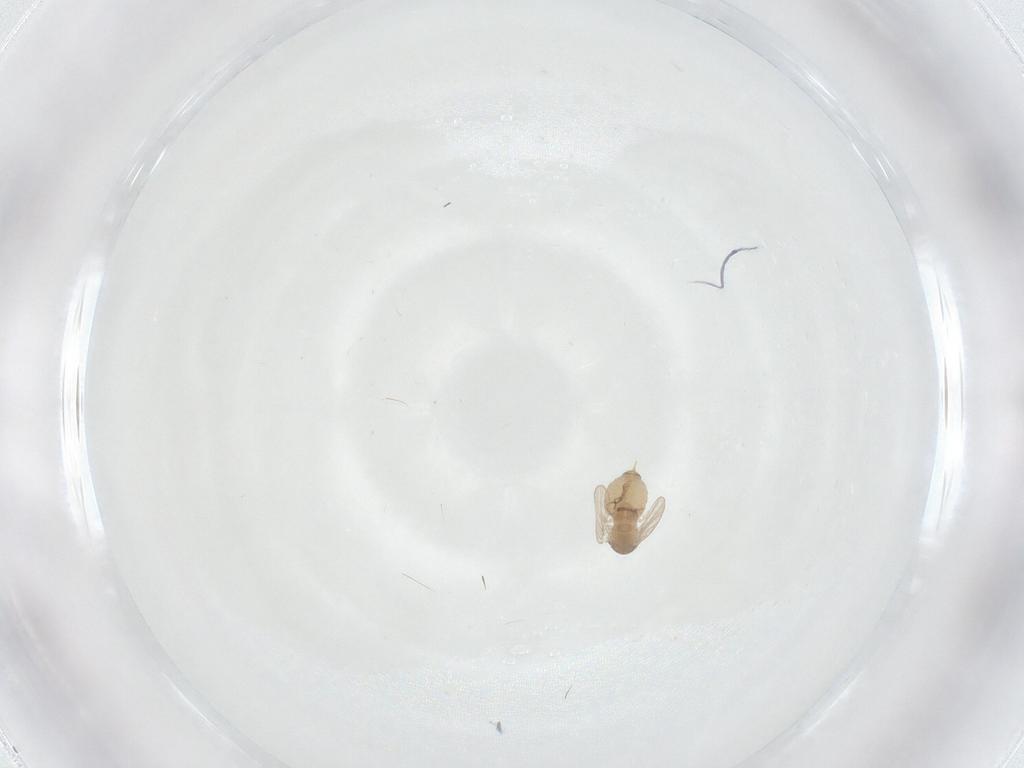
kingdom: Animalia
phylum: Arthropoda
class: Insecta
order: Diptera
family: Psychodidae
